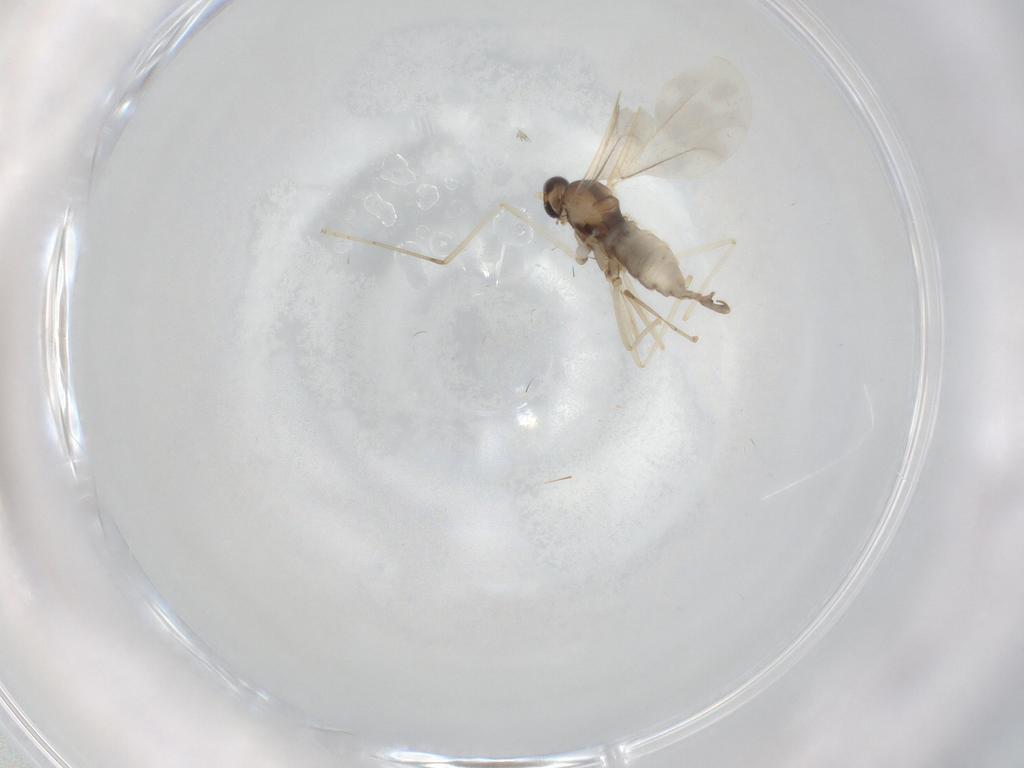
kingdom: Animalia
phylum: Arthropoda
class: Insecta
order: Diptera
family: Cecidomyiidae
